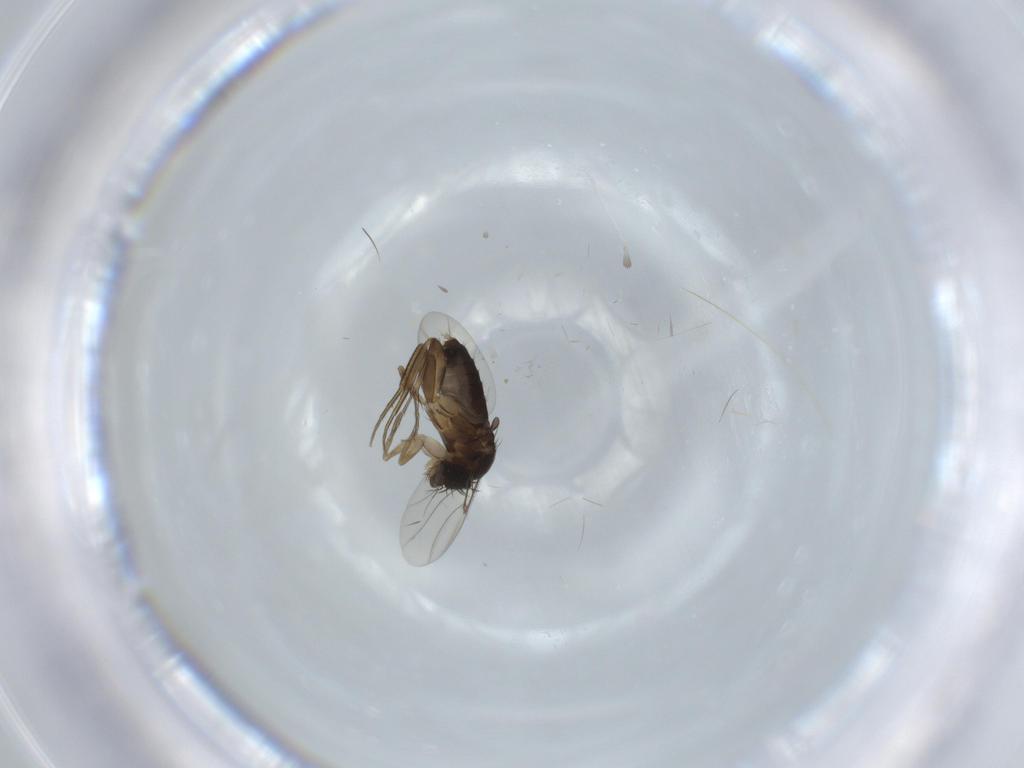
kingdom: Animalia
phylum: Arthropoda
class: Insecta
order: Diptera
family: Phoridae
